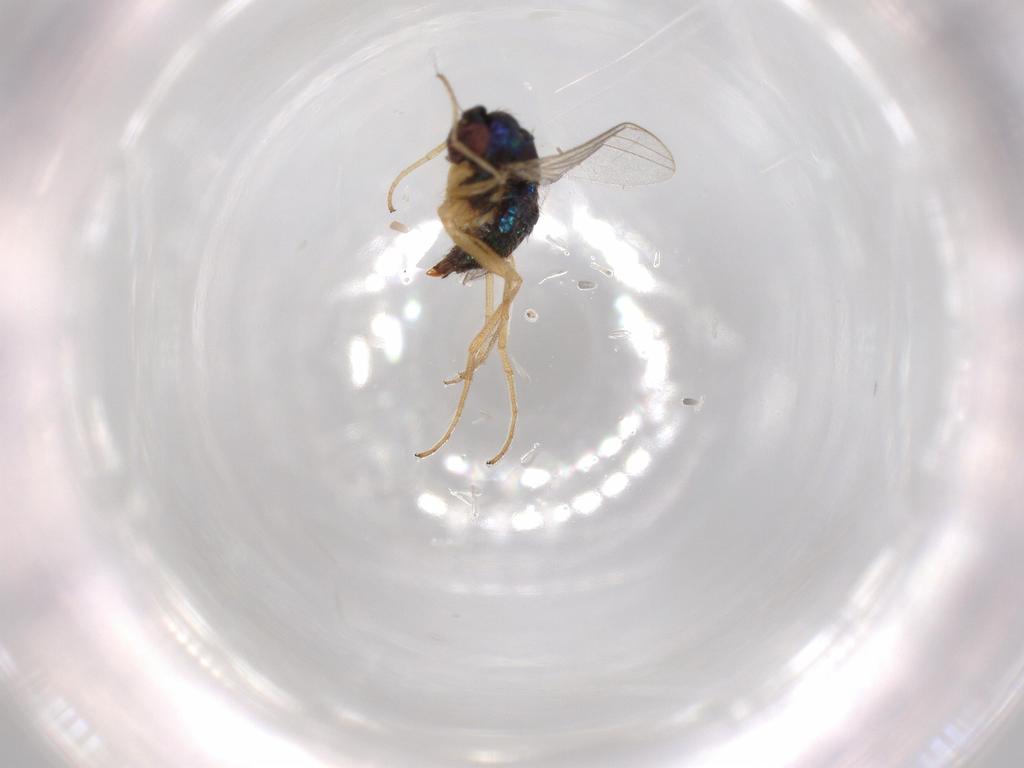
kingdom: Animalia
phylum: Arthropoda
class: Insecta
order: Diptera
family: Dolichopodidae
